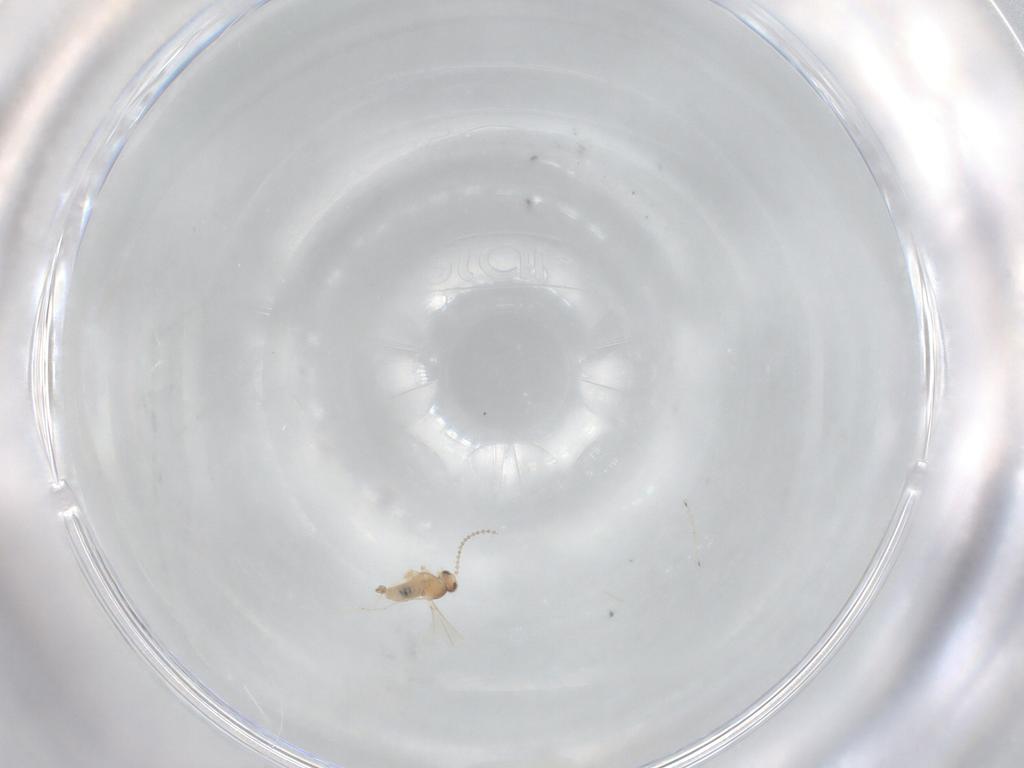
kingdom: Animalia
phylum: Arthropoda
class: Insecta
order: Diptera
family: Cecidomyiidae
